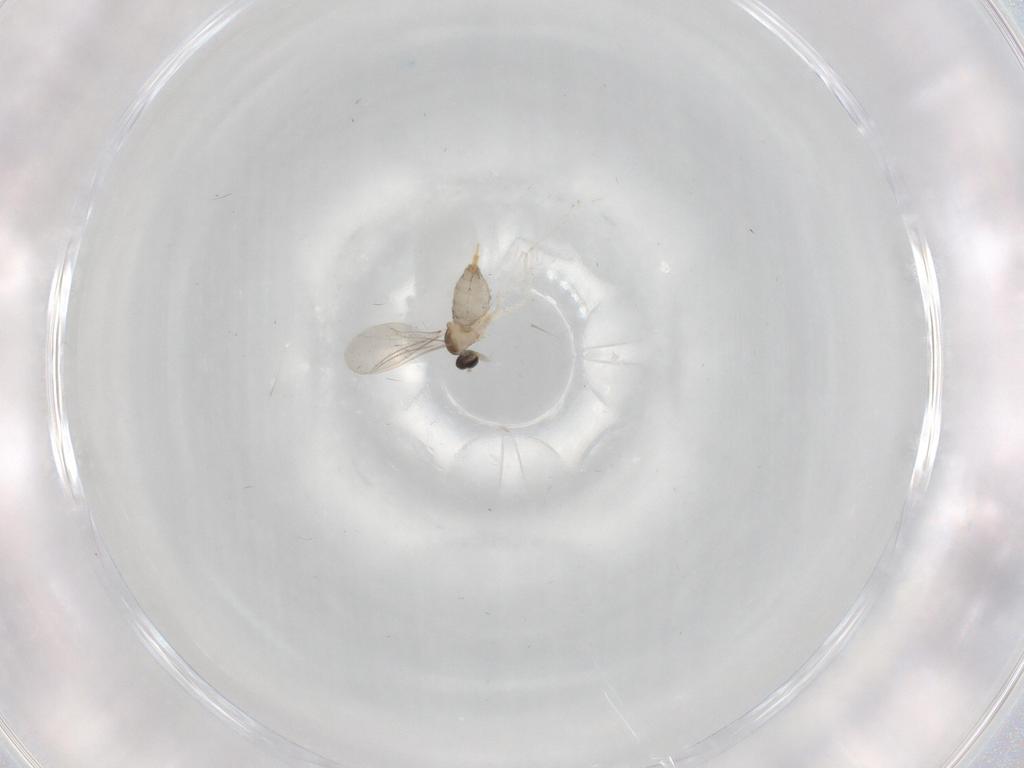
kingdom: Animalia
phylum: Arthropoda
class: Insecta
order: Diptera
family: Cecidomyiidae
